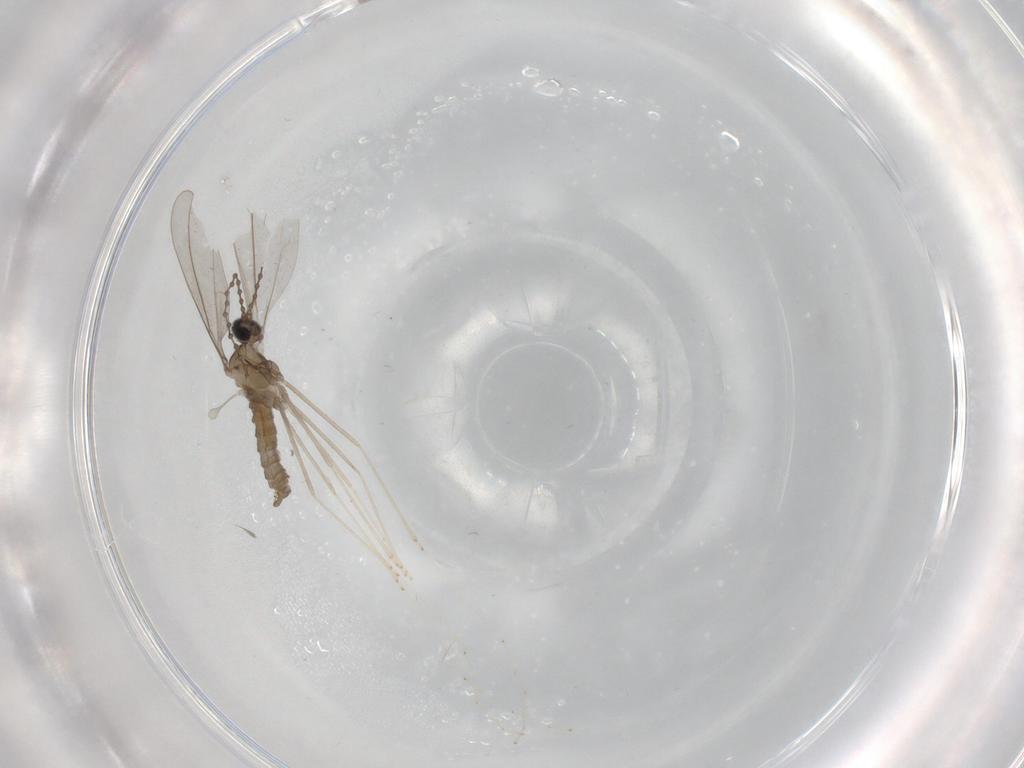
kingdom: Animalia
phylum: Arthropoda
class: Insecta
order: Diptera
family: Cecidomyiidae
